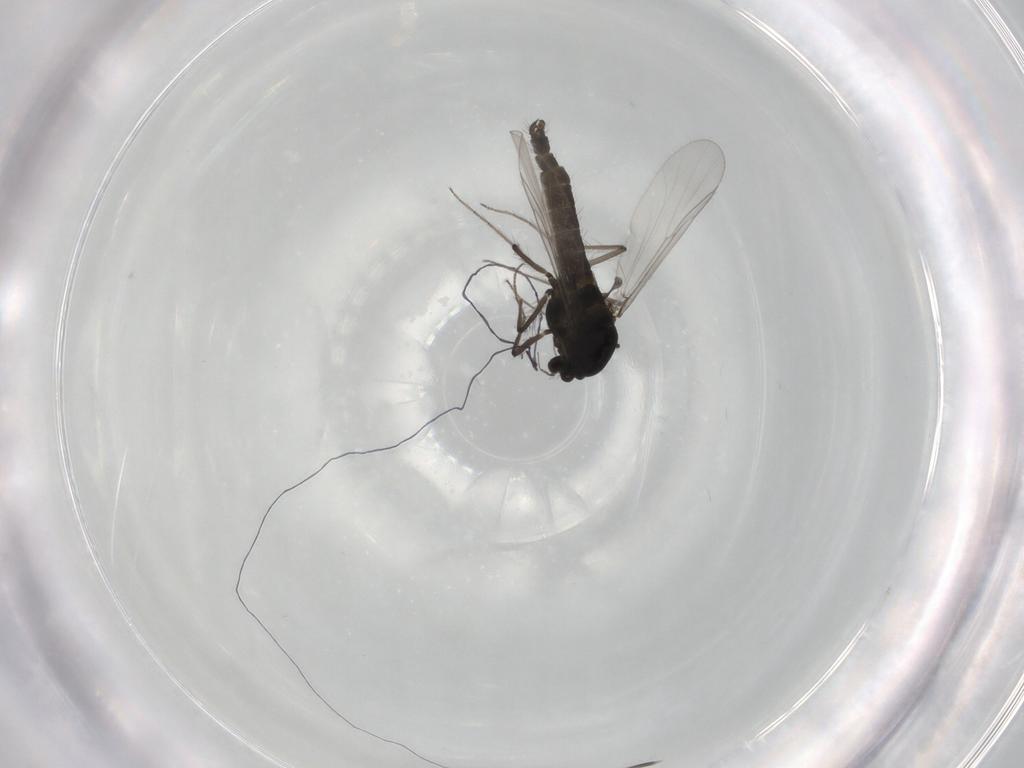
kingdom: Animalia
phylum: Arthropoda
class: Insecta
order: Diptera
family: Chironomidae
